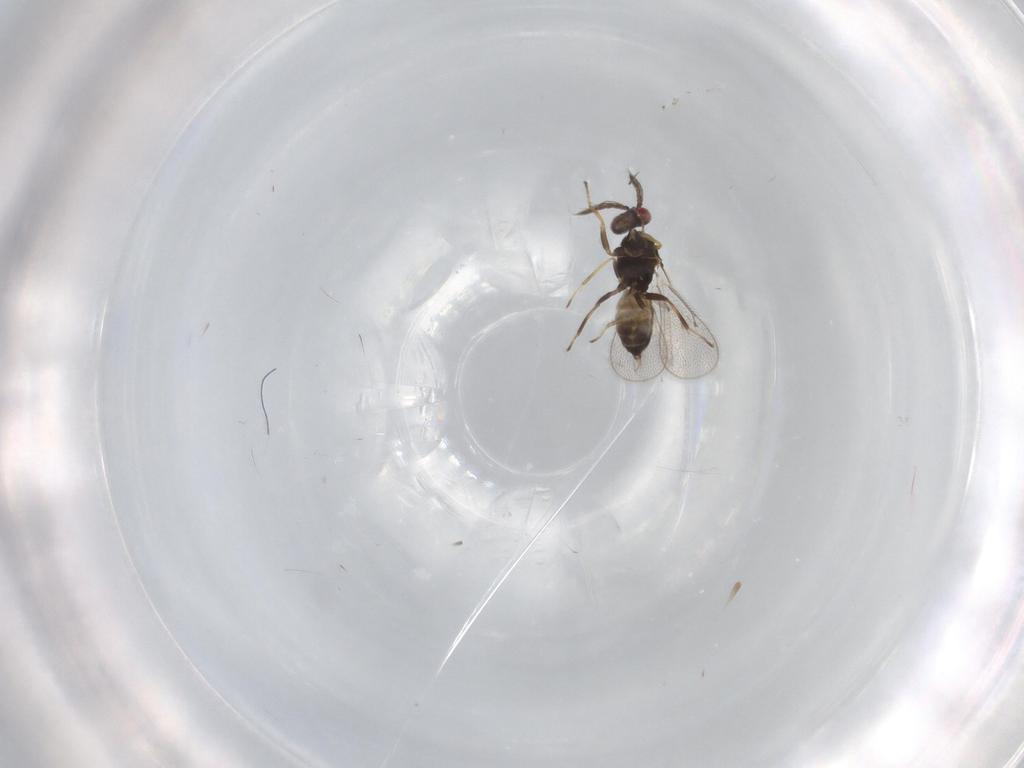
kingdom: Animalia
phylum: Arthropoda
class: Insecta
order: Hymenoptera
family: Eulophidae
